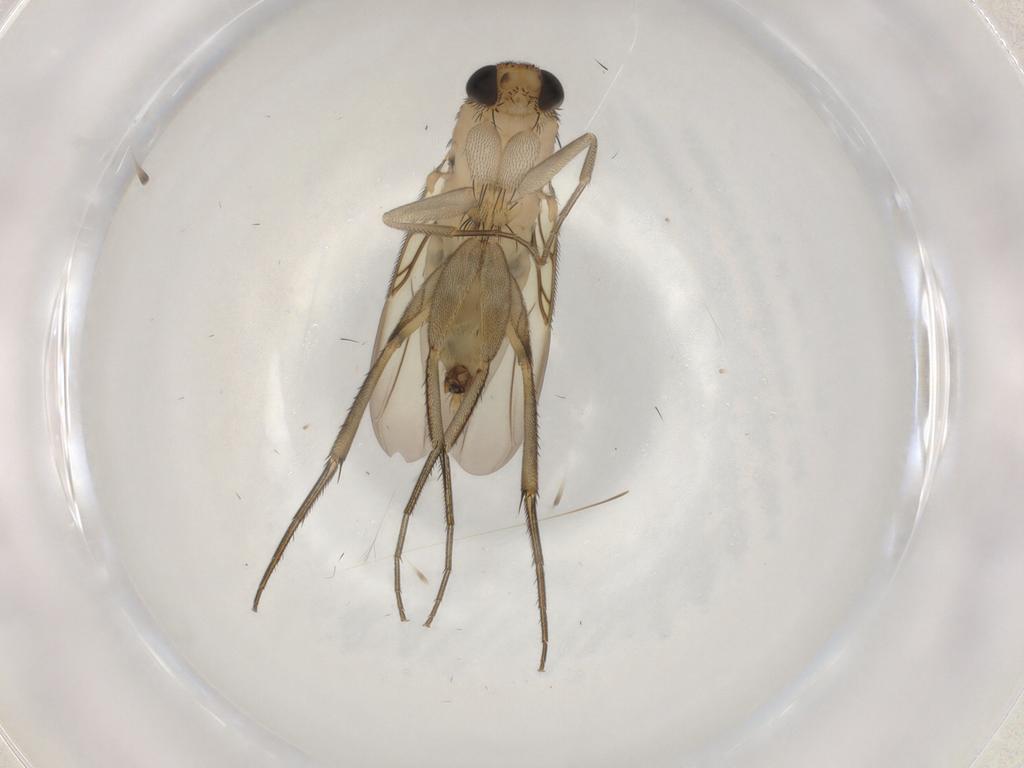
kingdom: Animalia
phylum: Arthropoda
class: Insecta
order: Diptera
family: Phoridae
